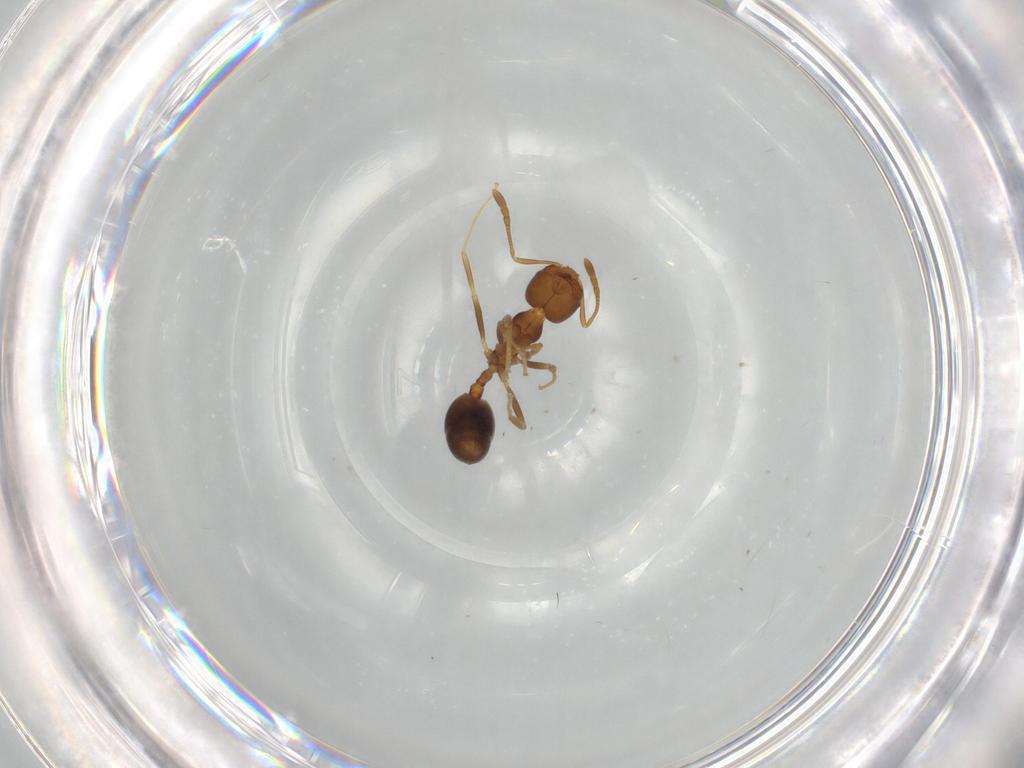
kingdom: Animalia
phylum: Arthropoda
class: Insecta
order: Hymenoptera
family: Formicidae
